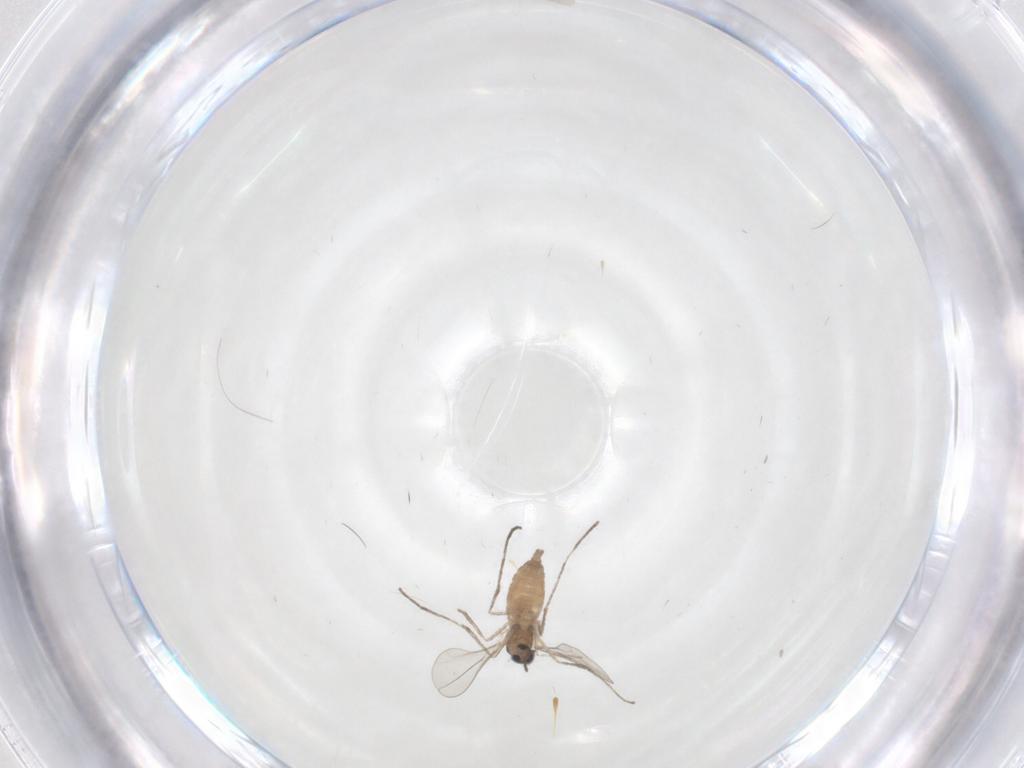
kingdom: Animalia
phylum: Arthropoda
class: Insecta
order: Diptera
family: Cecidomyiidae
